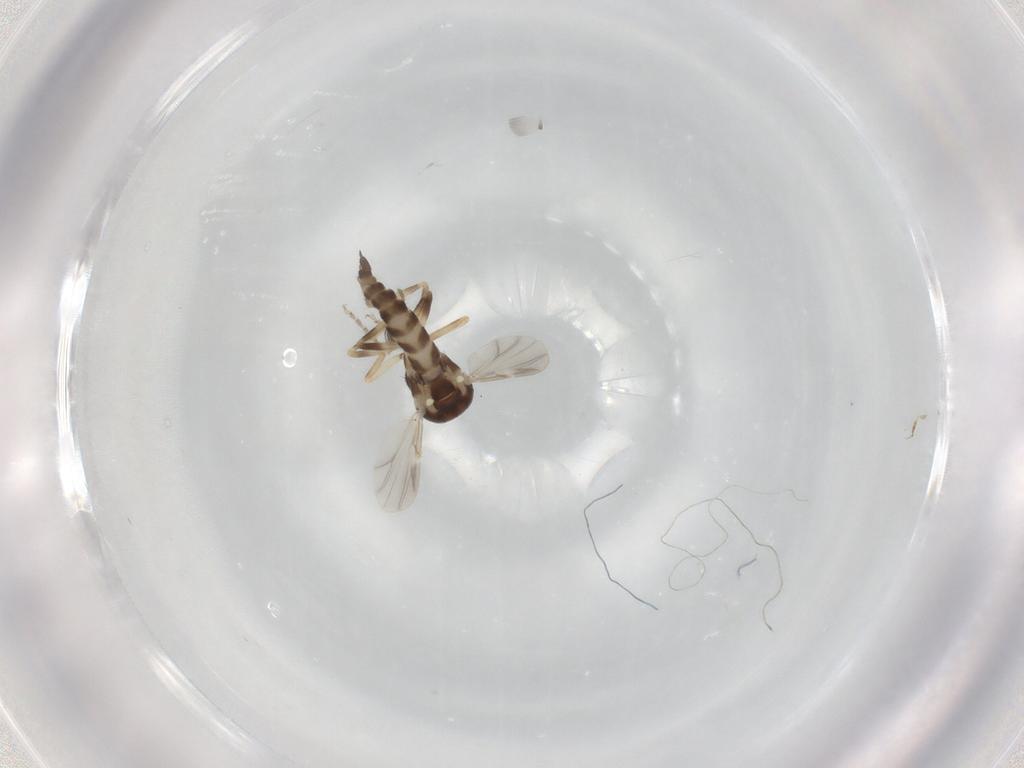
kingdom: Animalia
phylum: Arthropoda
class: Insecta
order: Diptera
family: Ceratopogonidae
